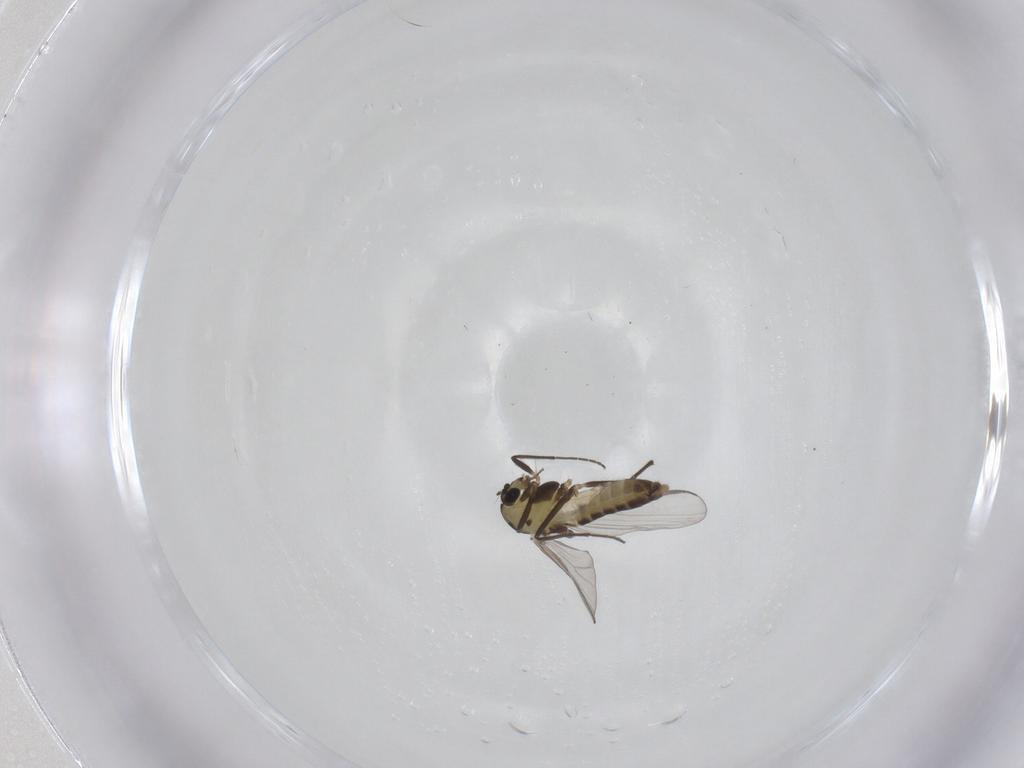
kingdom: Animalia
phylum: Arthropoda
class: Insecta
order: Diptera
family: Chironomidae
